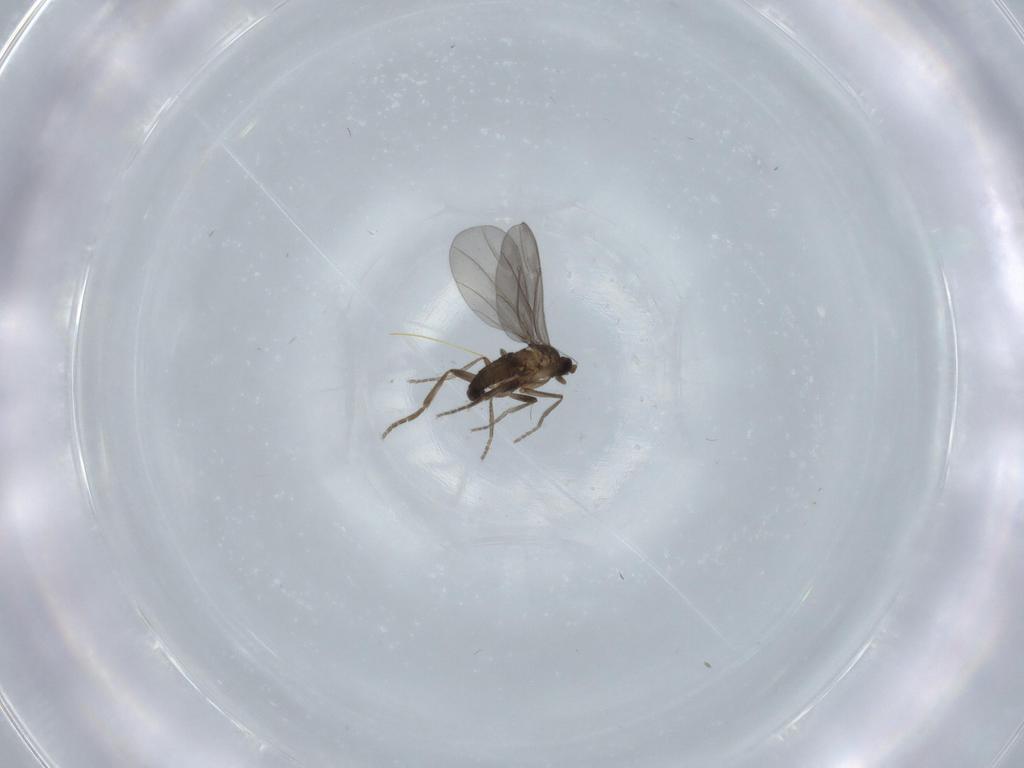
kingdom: Animalia
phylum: Arthropoda
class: Insecta
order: Diptera
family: Phoridae
